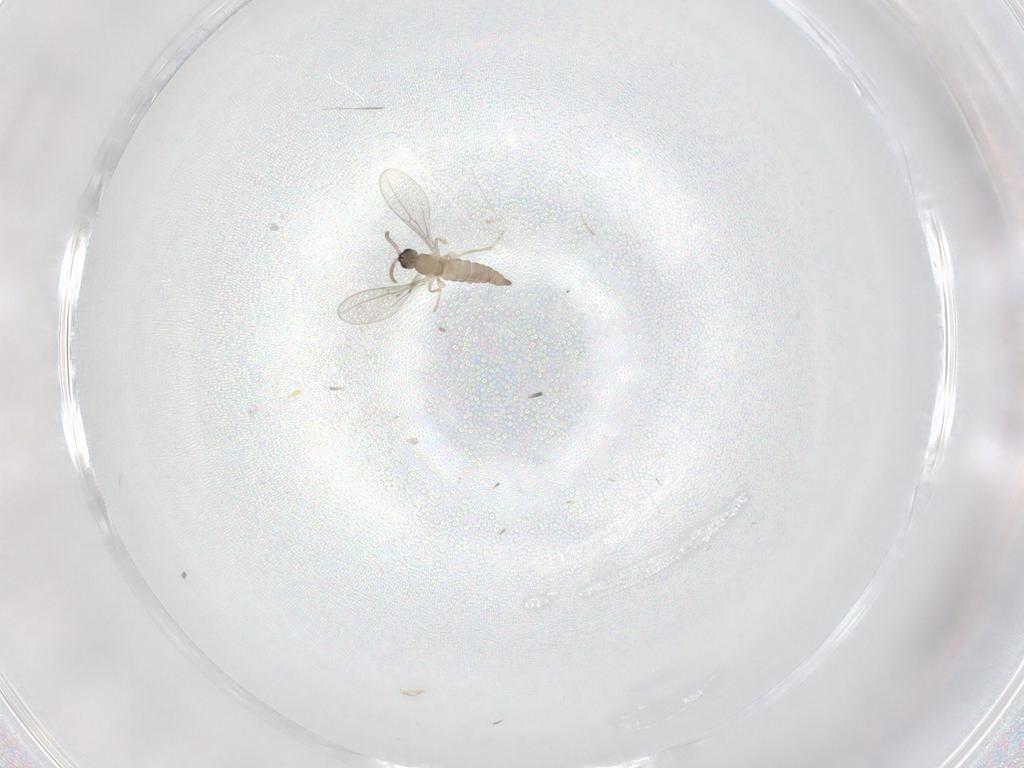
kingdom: Animalia
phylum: Arthropoda
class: Insecta
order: Diptera
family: Cecidomyiidae
